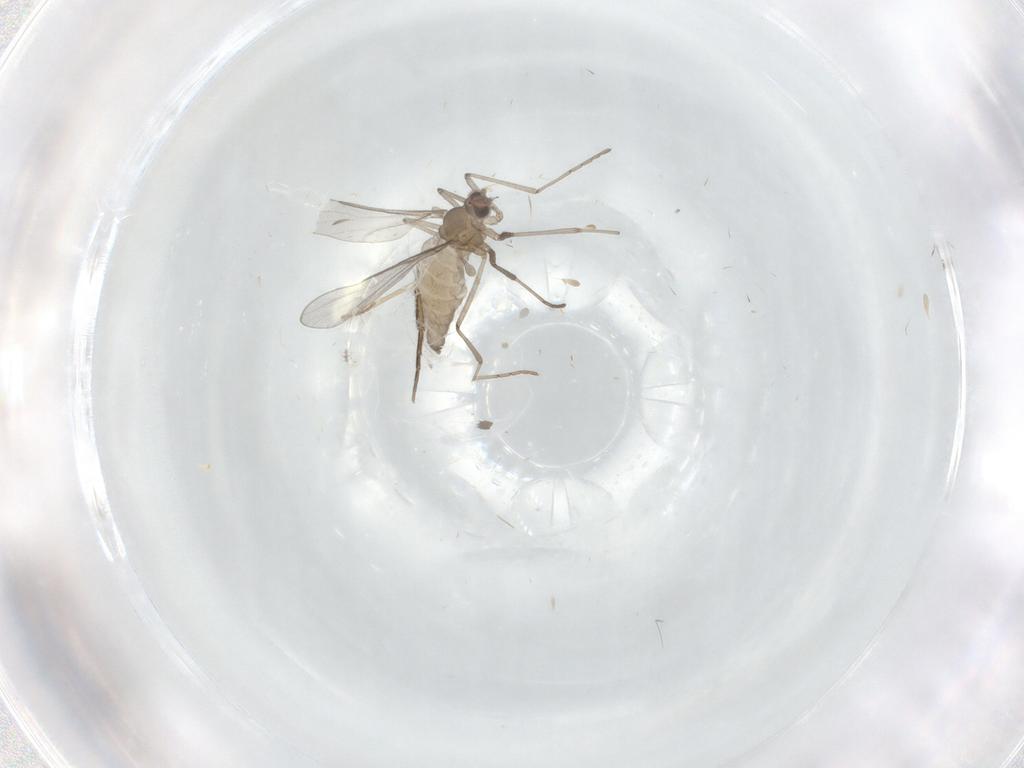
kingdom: Animalia
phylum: Arthropoda
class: Insecta
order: Diptera
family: Cecidomyiidae
